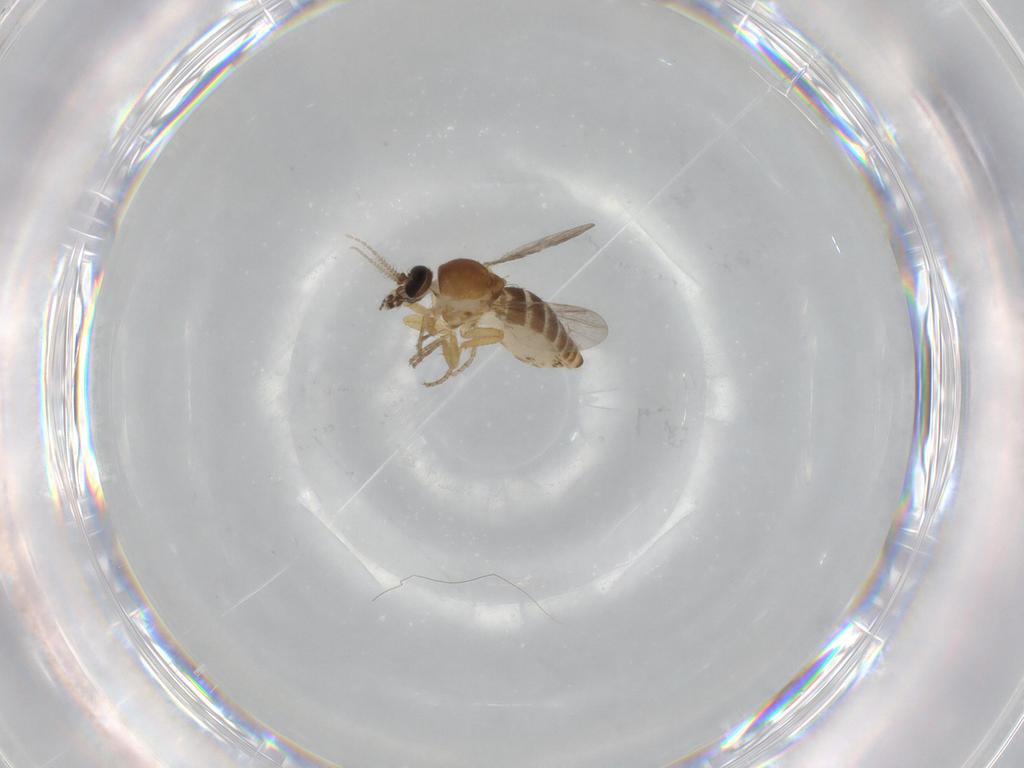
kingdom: Animalia
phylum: Arthropoda
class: Insecta
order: Diptera
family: Ceratopogonidae
